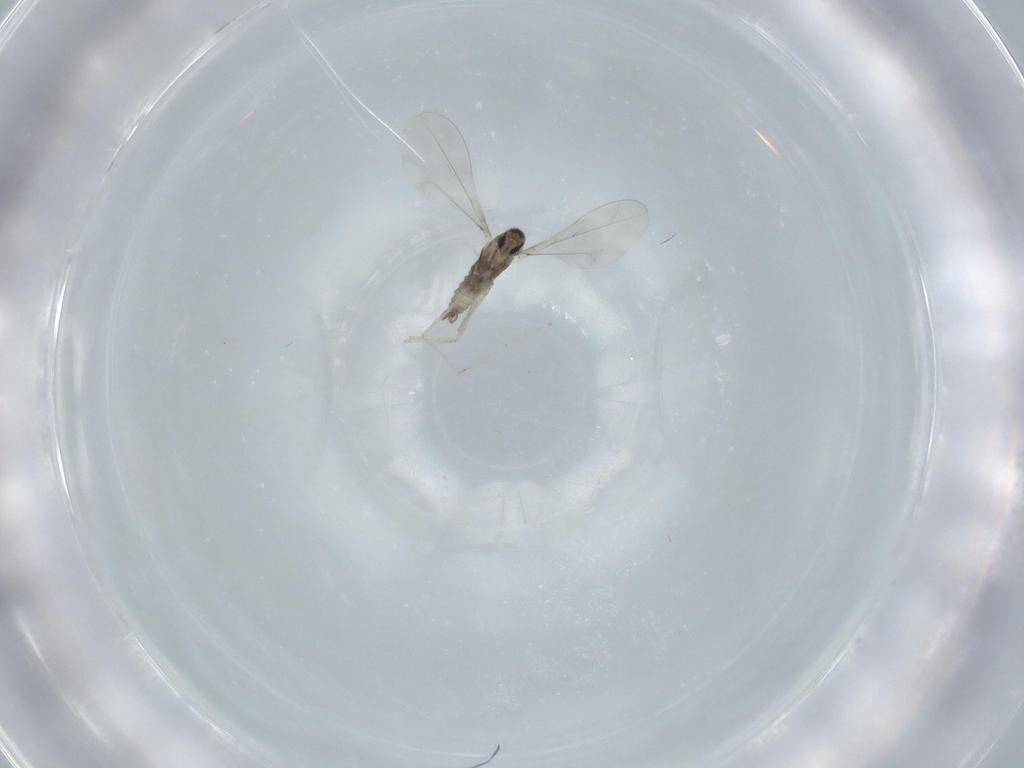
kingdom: Animalia
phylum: Arthropoda
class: Insecta
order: Diptera
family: Cecidomyiidae
